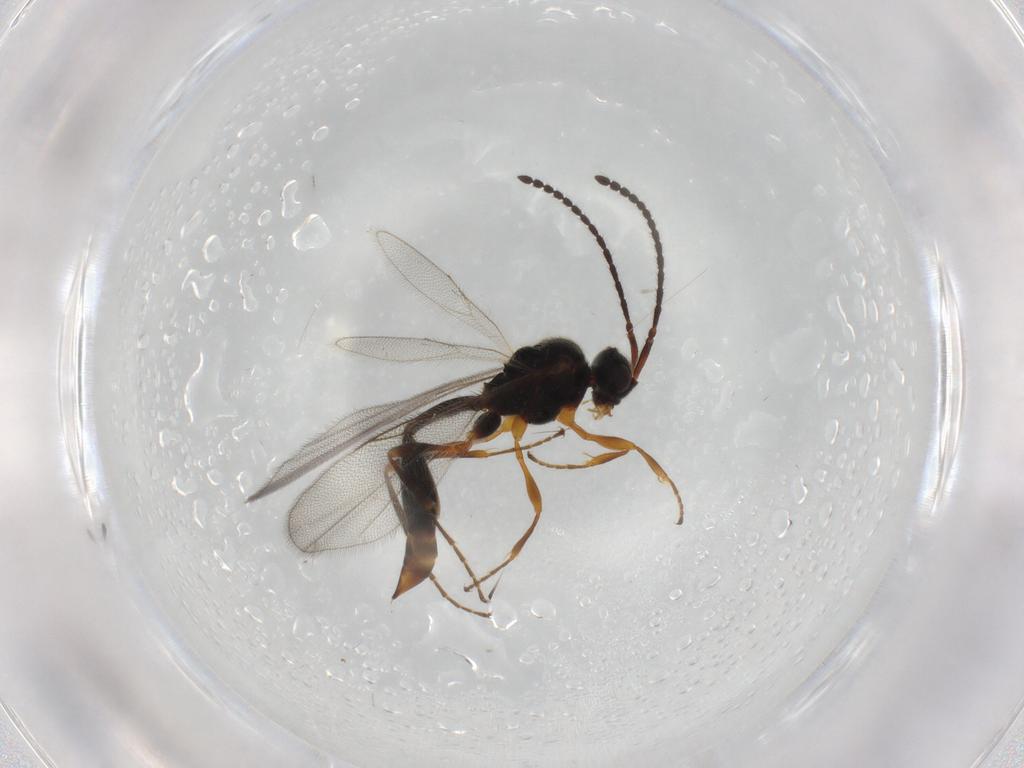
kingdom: Animalia
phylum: Arthropoda
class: Insecta
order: Hymenoptera
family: Diapriidae
